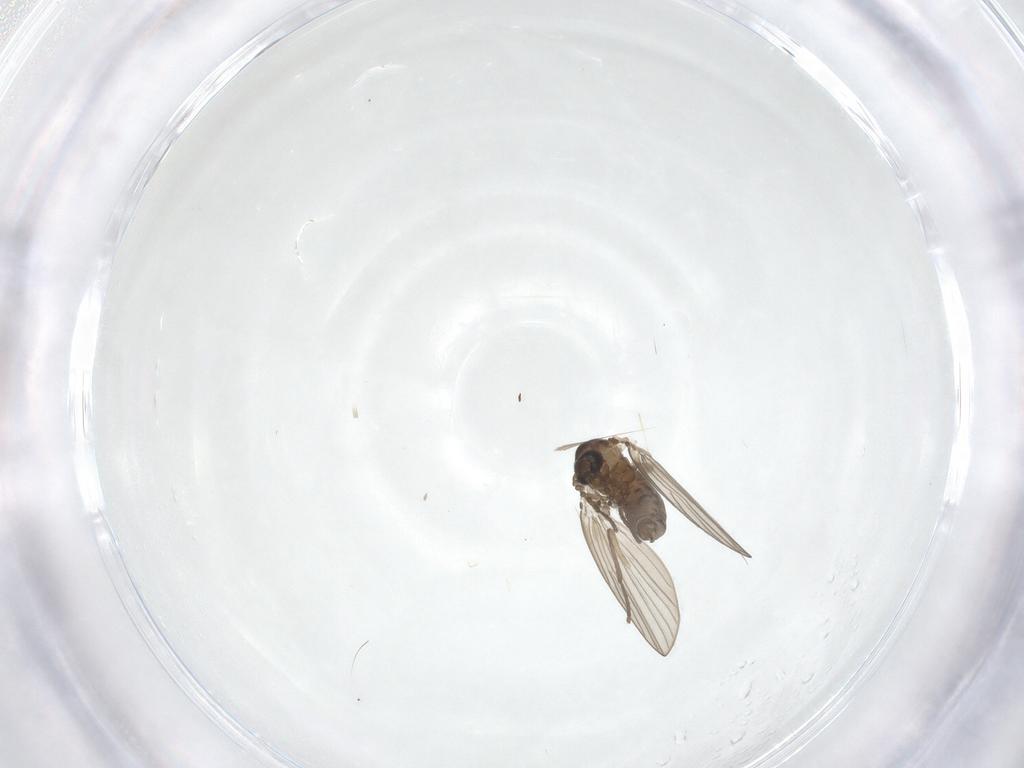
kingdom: Animalia
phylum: Arthropoda
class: Insecta
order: Diptera
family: Psychodidae
